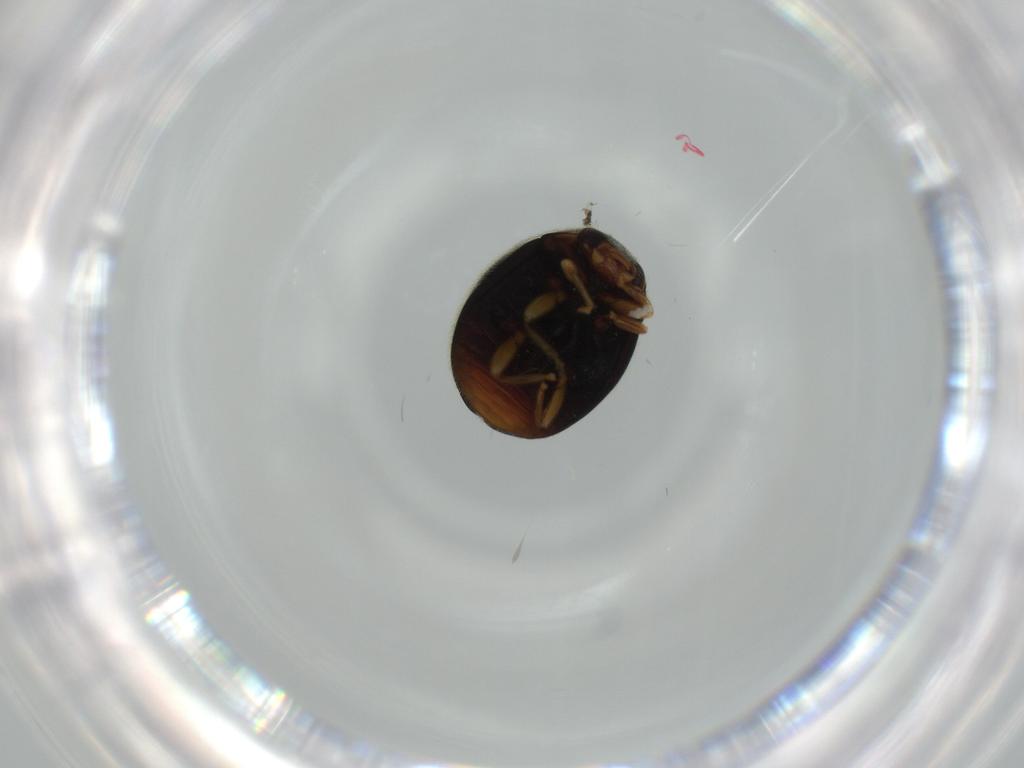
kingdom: Animalia
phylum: Arthropoda
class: Insecta
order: Coleoptera
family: Coccinellidae
